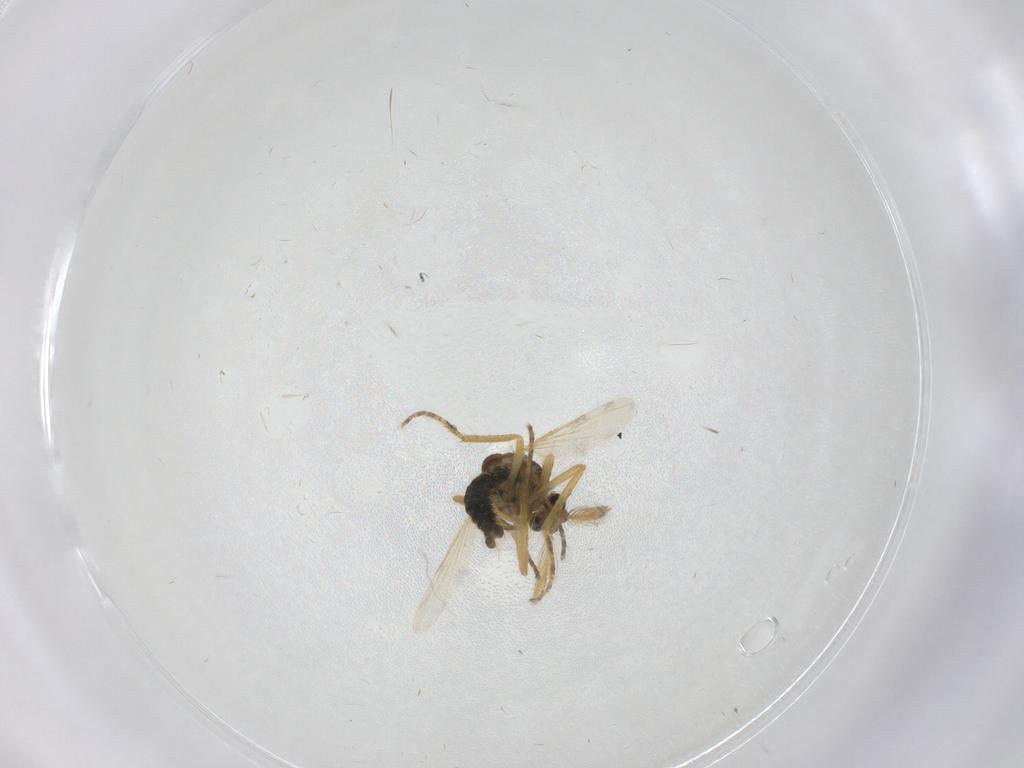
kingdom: Animalia
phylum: Arthropoda
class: Insecta
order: Diptera
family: Ceratopogonidae
